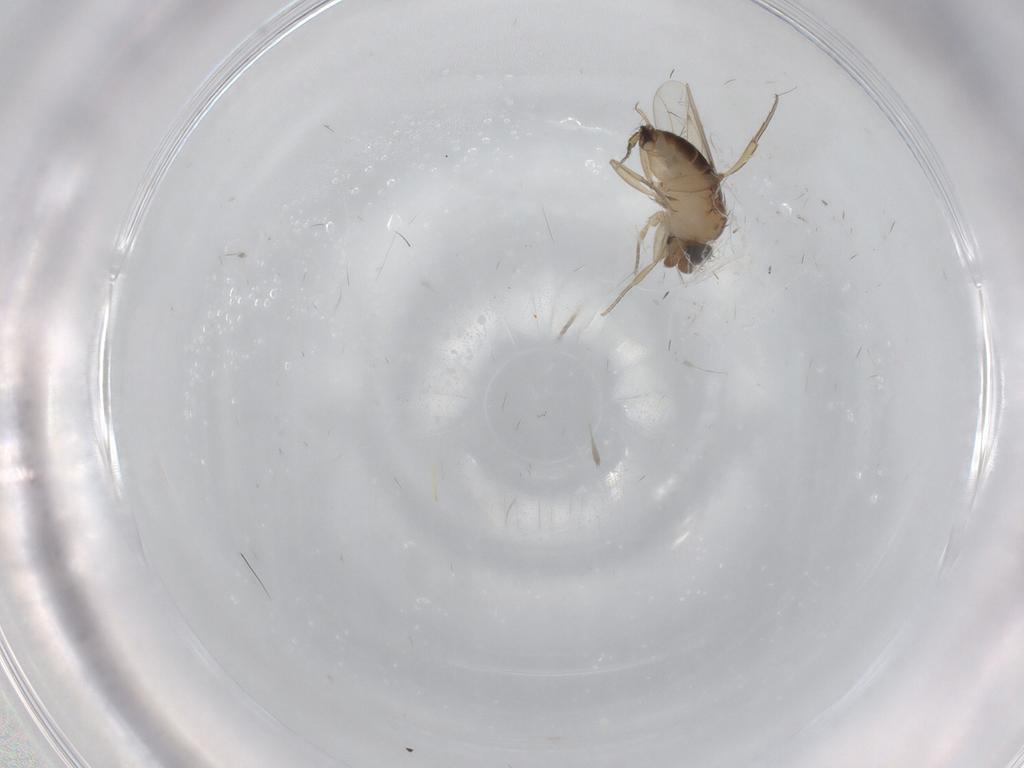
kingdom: Animalia
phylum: Arthropoda
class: Insecta
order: Diptera
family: Phoridae
